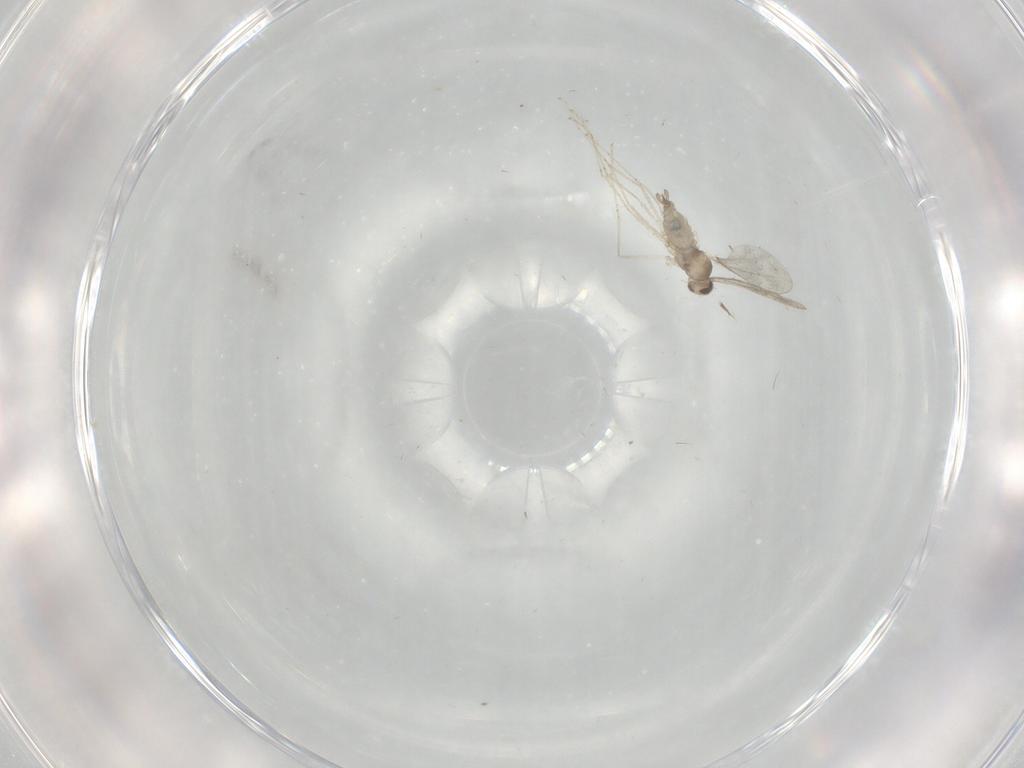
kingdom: Animalia
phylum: Arthropoda
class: Insecta
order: Diptera
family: Cecidomyiidae
